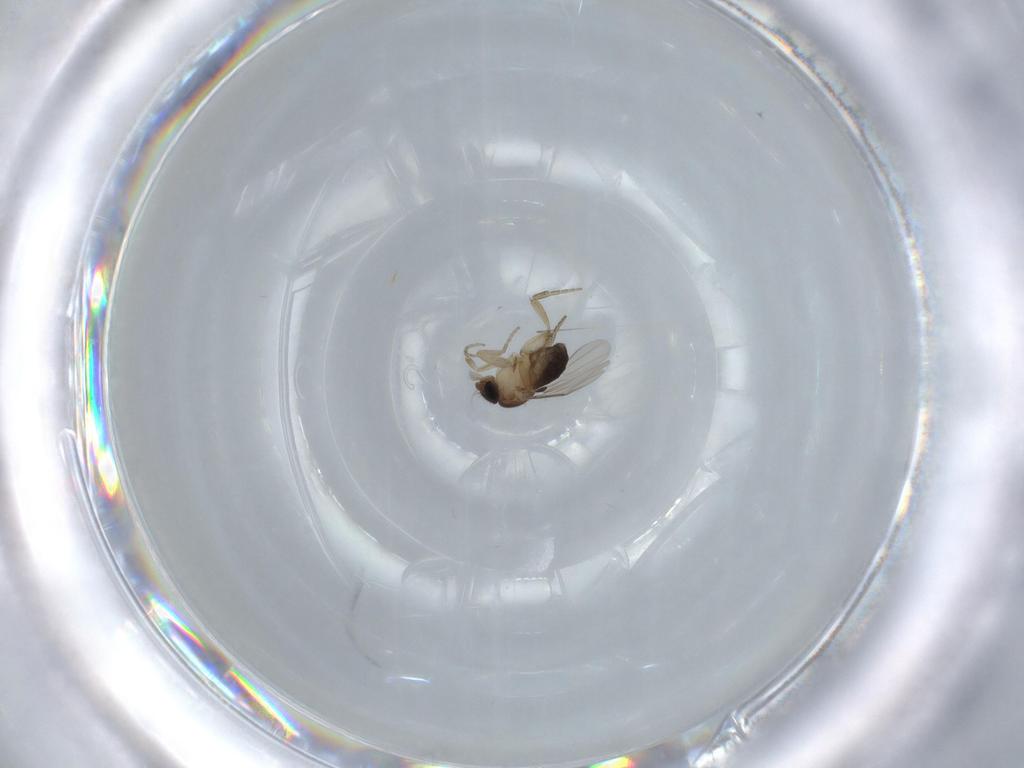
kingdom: Animalia
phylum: Arthropoda
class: Insecta
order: Diptera
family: Phoridae
